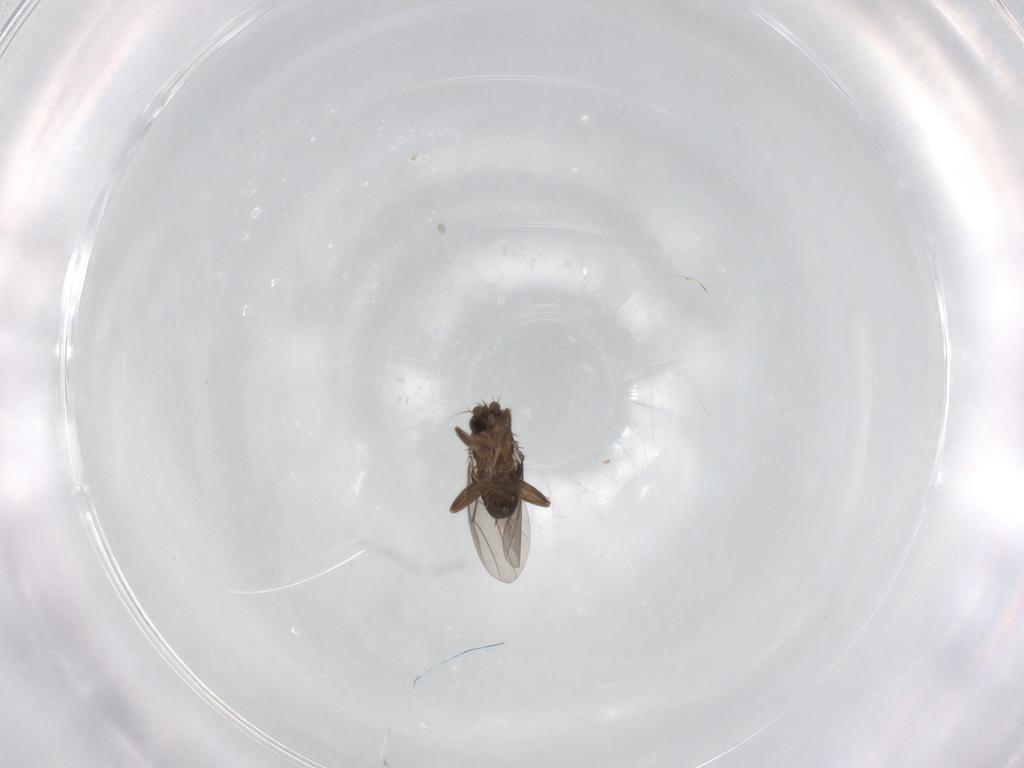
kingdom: Animalia
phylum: Arthropoda
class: Insecta
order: Diptera
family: Phoridae
